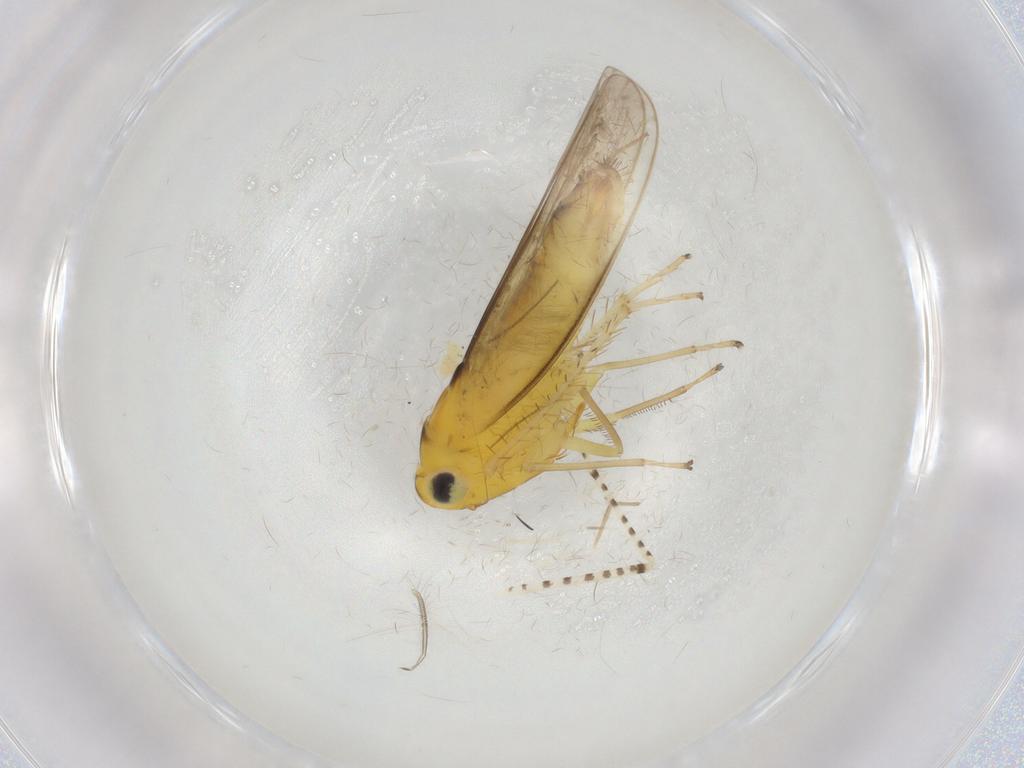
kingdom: Animalia
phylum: Arthropoda
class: Insecta
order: Hemiptera
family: Cicadellidae
